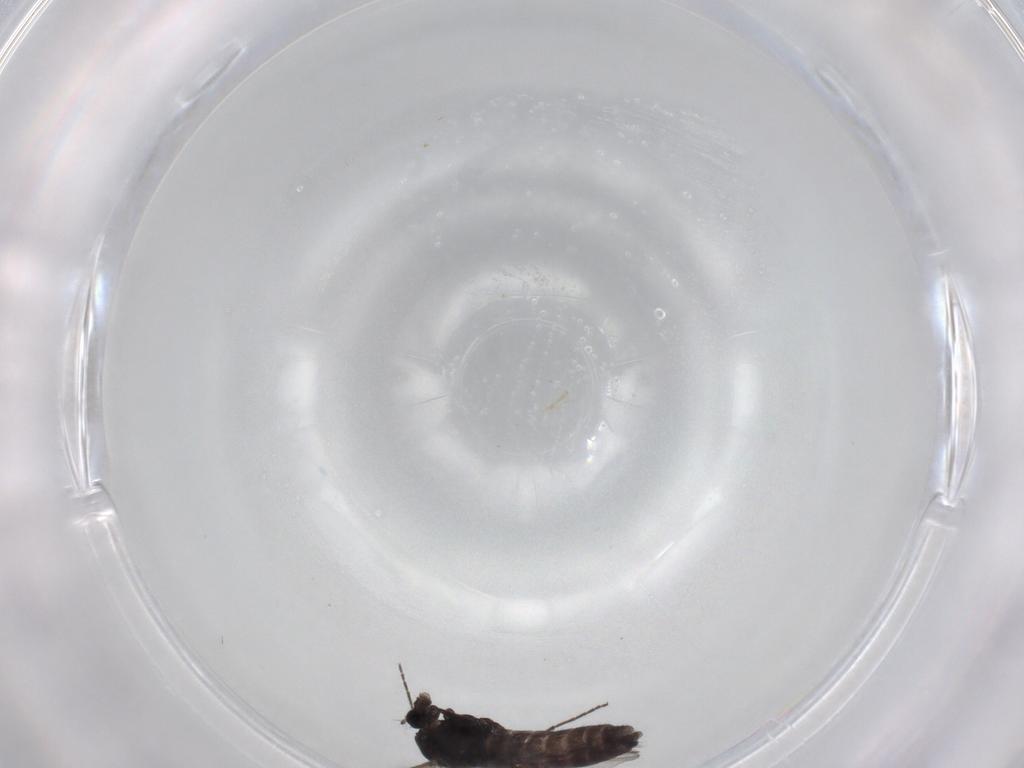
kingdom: Animalia
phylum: Arthropoda
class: Insecta
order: Diptera
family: Chironomidae
